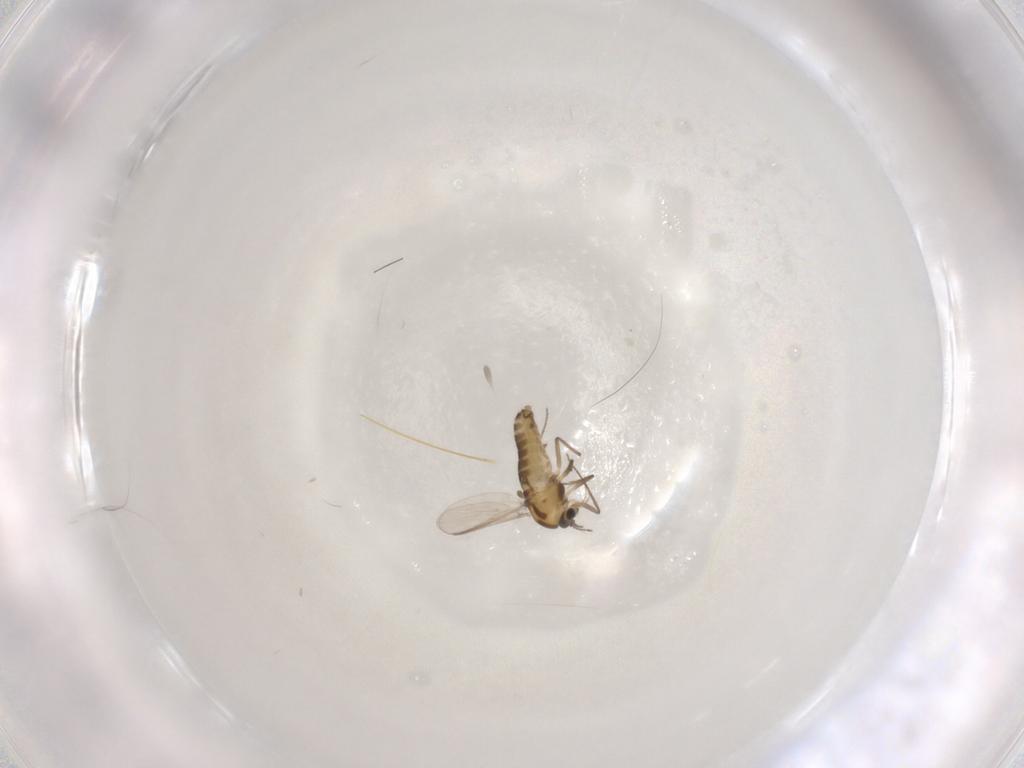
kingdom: Animalia
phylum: Arthropoda
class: Insecta
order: Diptera
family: Chironomidae
